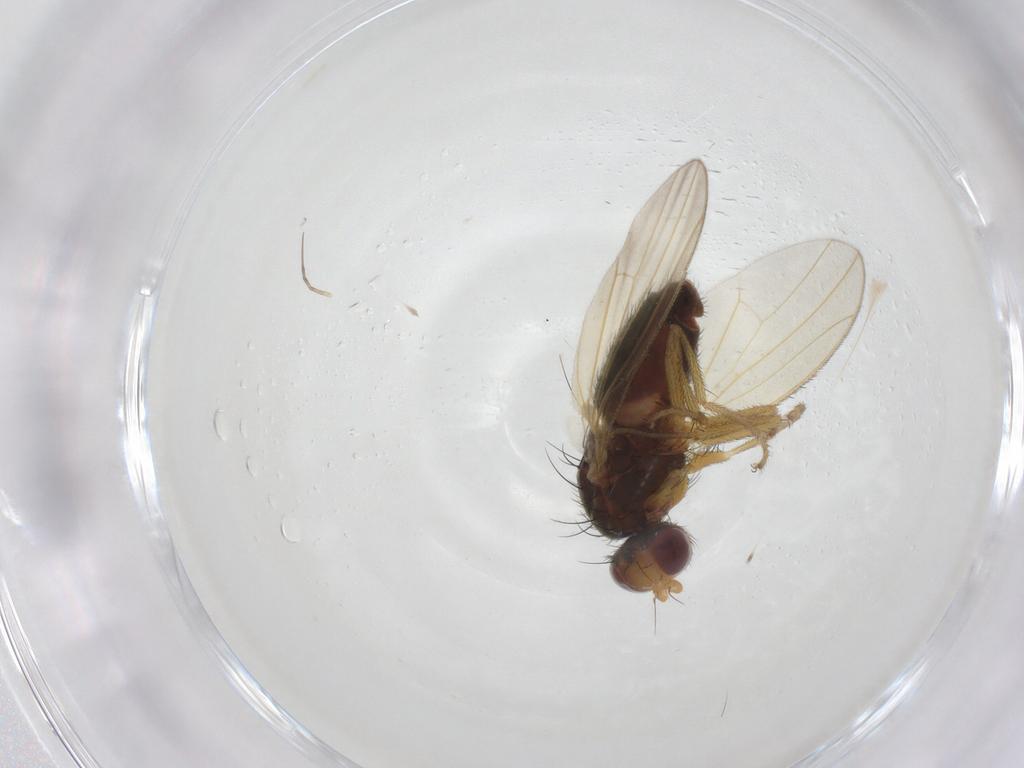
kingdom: Animalia
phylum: Arthropoda
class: Insecta
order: Diptera
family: Heleomyzidae
